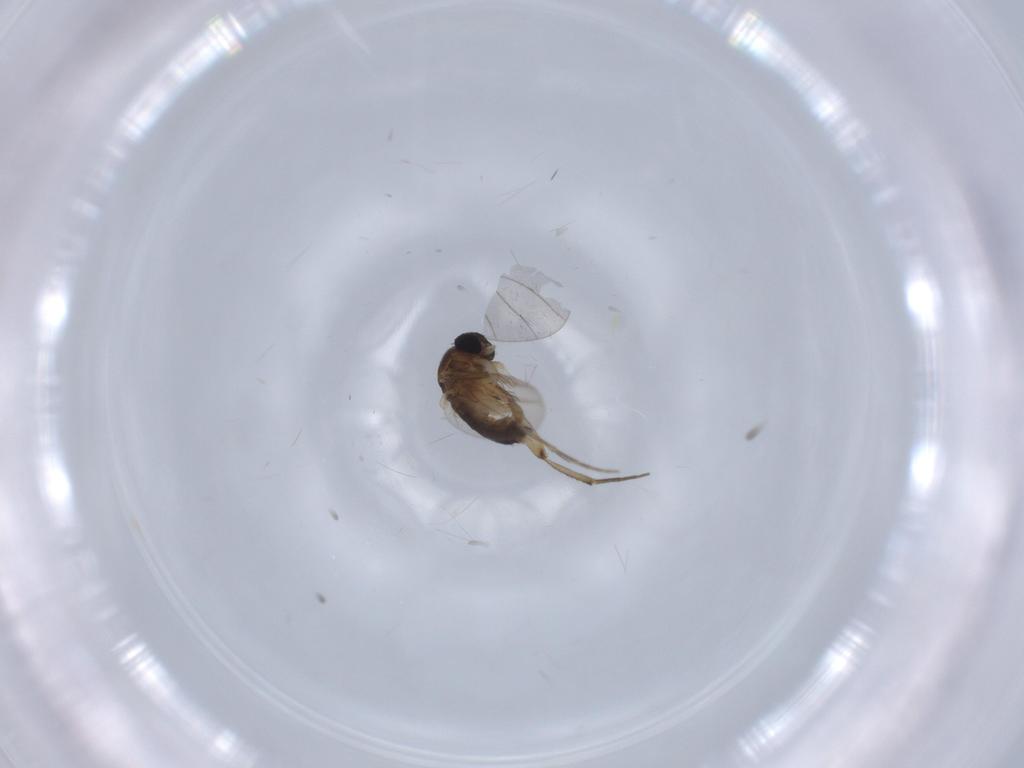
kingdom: Animalia
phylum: Arthropoda
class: Insecta
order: Diptera
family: Phoridae
